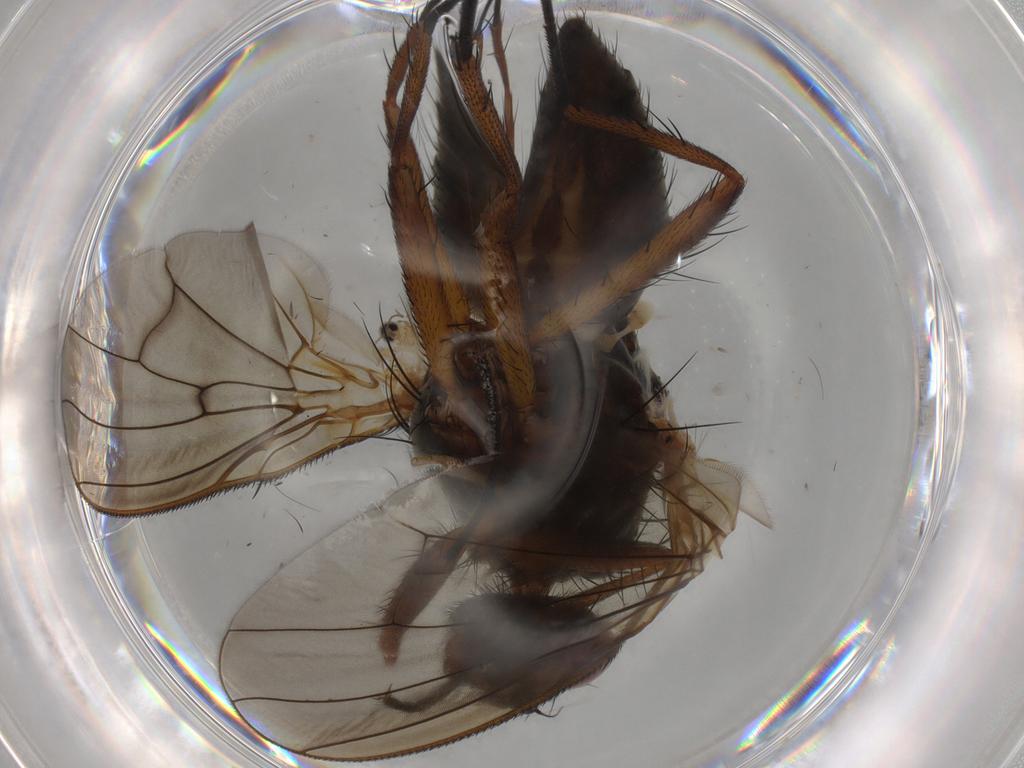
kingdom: Animalia
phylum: Arthropoda
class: Insecta
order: Diptera
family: Anthomyiidae
